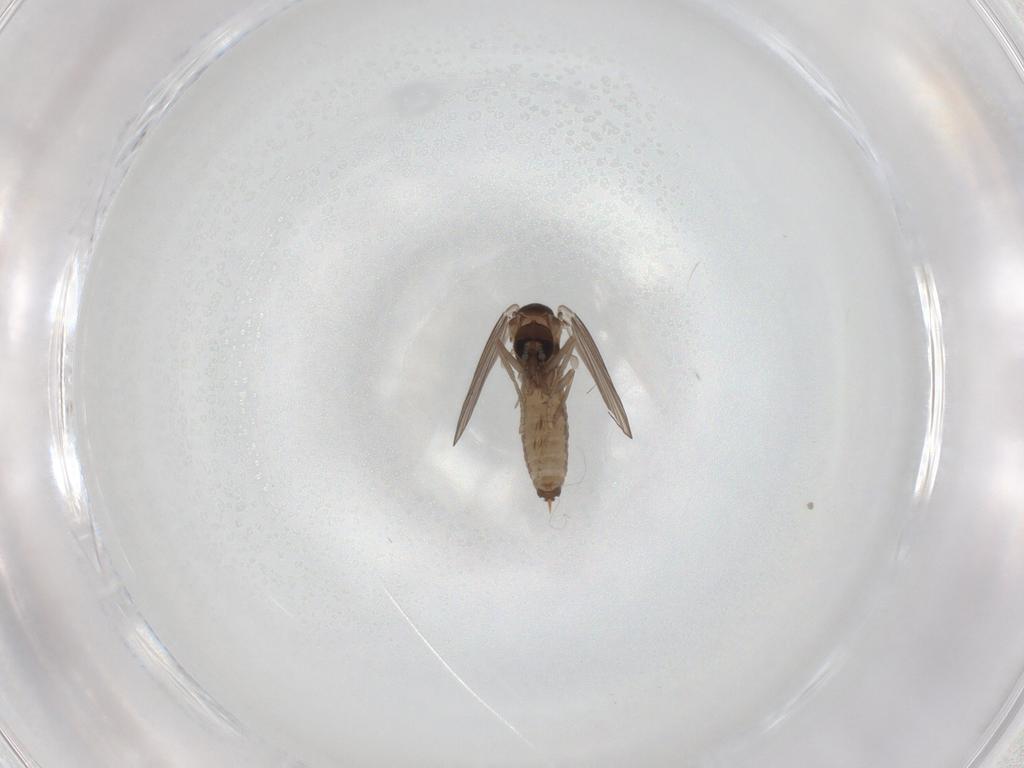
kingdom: Animalia
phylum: Arthropoda
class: Insecta
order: Diptera
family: Psychodidae
